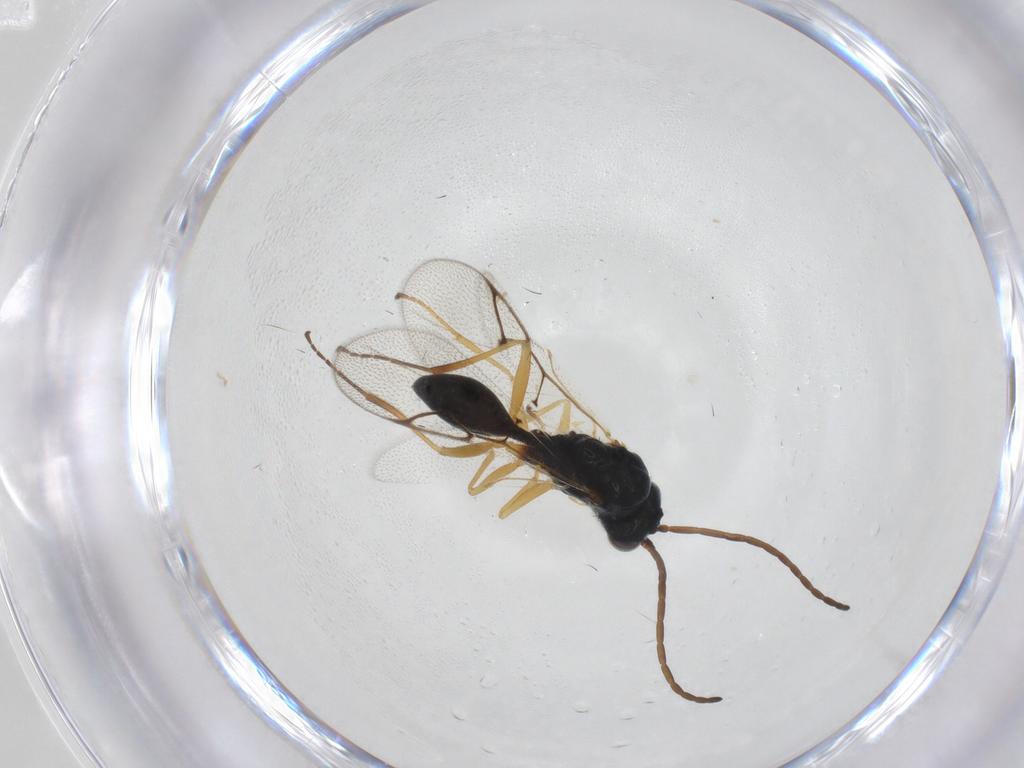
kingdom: Animalia
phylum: Arthropoda
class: Insecta
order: Hymenoptera
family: Figitidae
